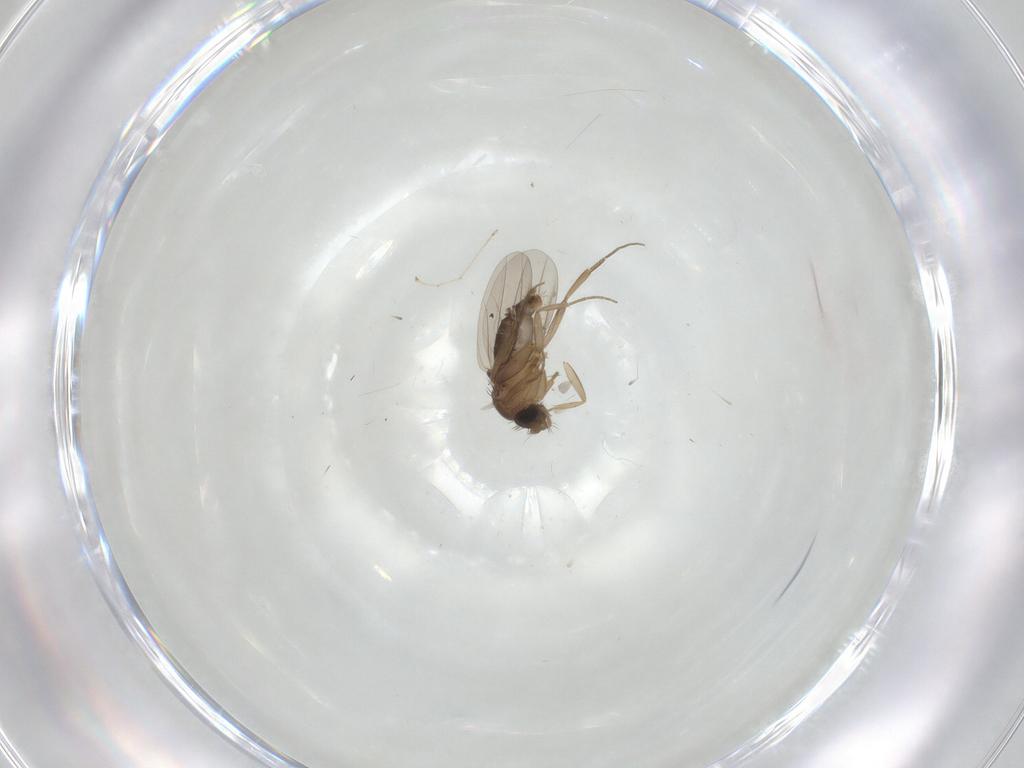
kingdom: Animalia
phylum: Arthropoda
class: Insecta
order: Diptera
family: Phoridae
